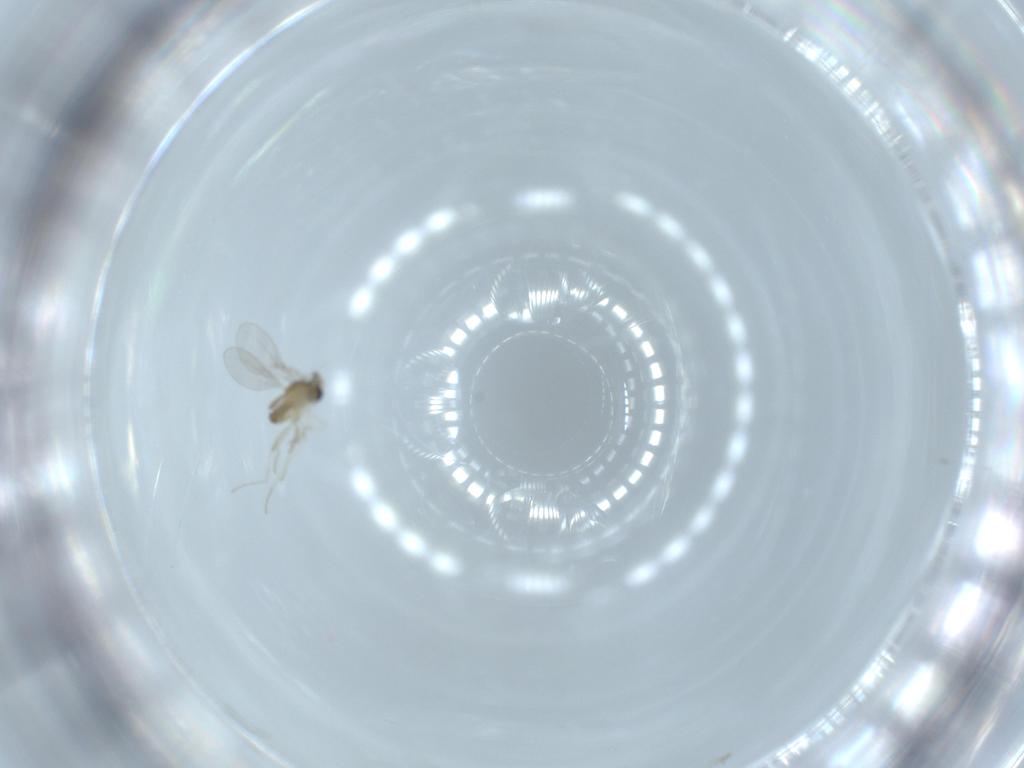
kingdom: Animalia
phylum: Arthropoda
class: Insecta
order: Diptera
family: Cecidomyiidae
